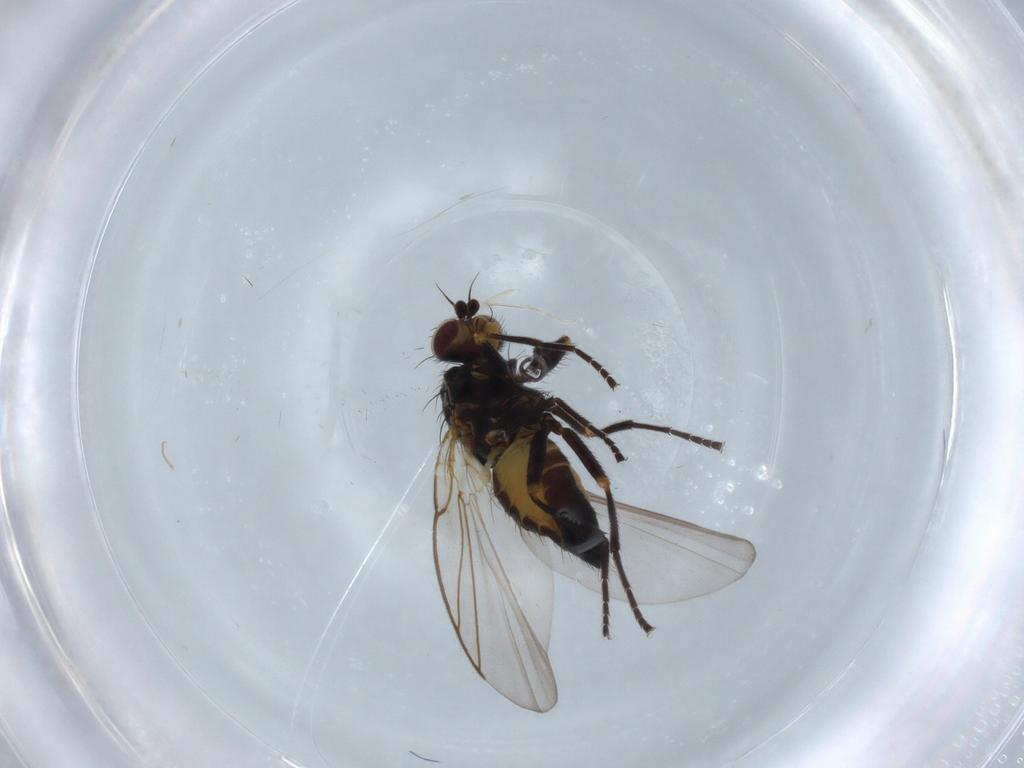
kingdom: Animalia
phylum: Arthropoda
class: Insecta
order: Diptera
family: Agromyzidae
